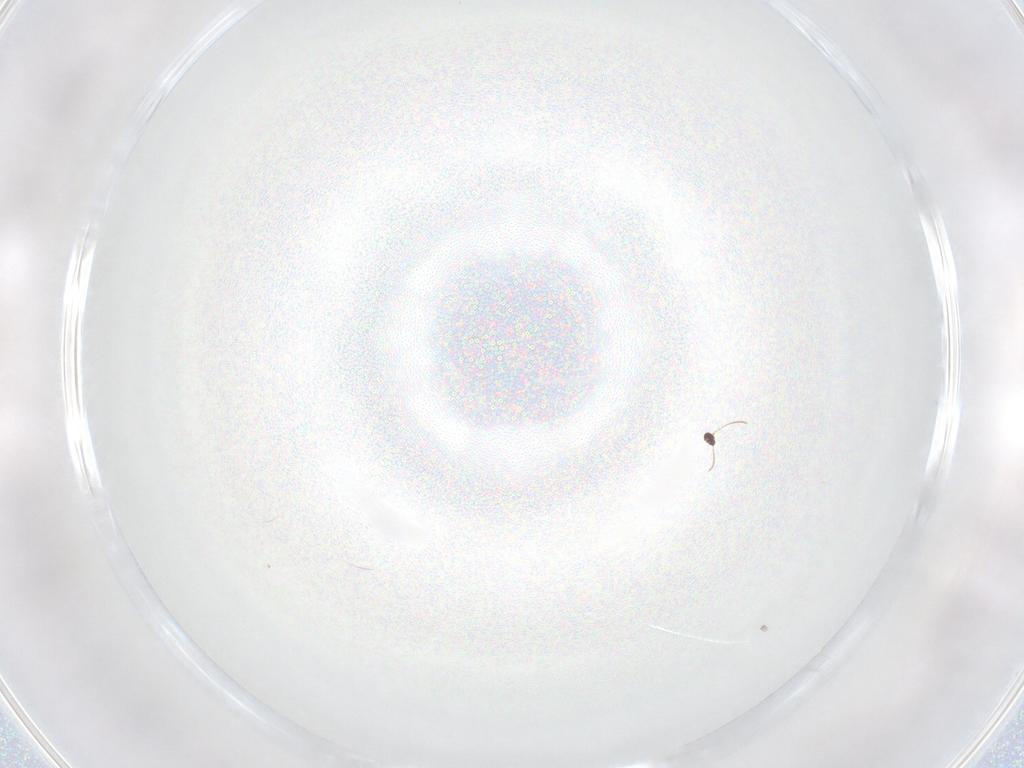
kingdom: Animalia
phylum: Arthropoda
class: Insecta
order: Hymenoptera
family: Mymaridae
